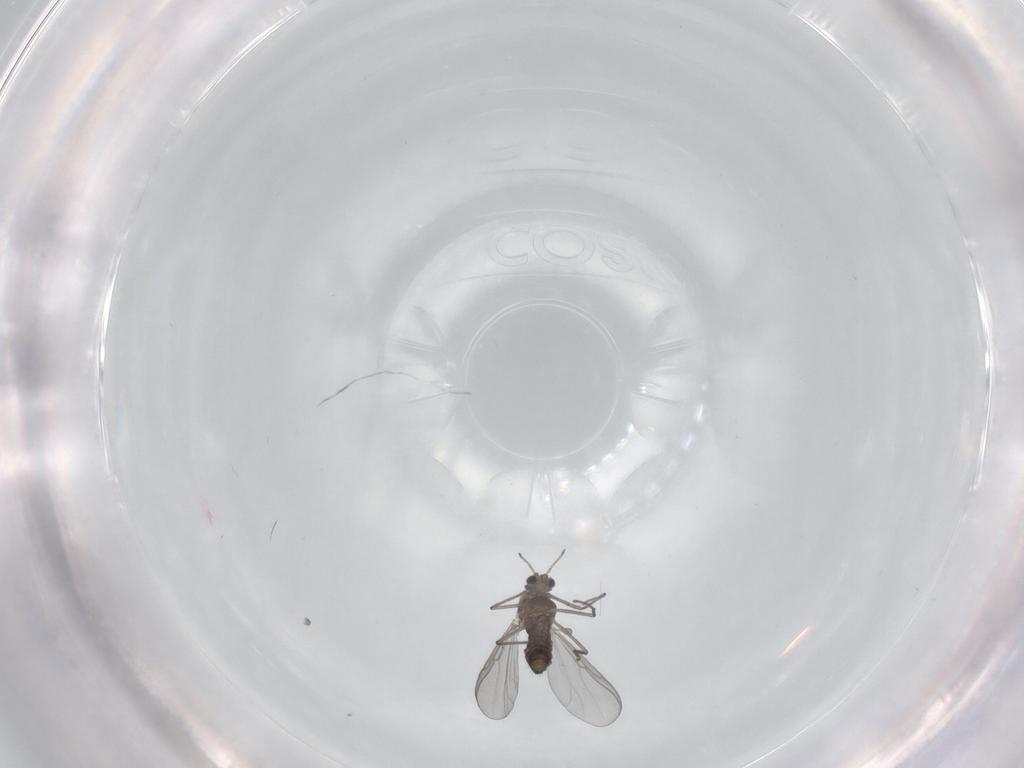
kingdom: Animalia
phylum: Arthropoda
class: Insecta
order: Diptera
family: Chironomidae
